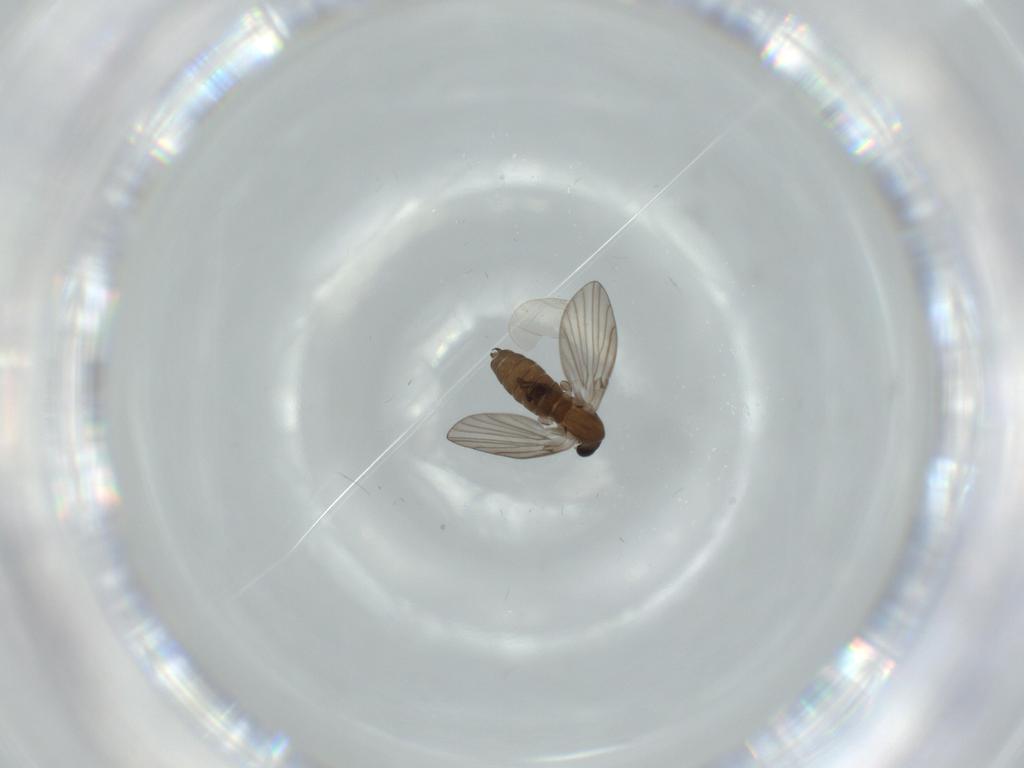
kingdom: Animalia
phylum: Arthropoda
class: Insecta
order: Diptera
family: Psychodidae
